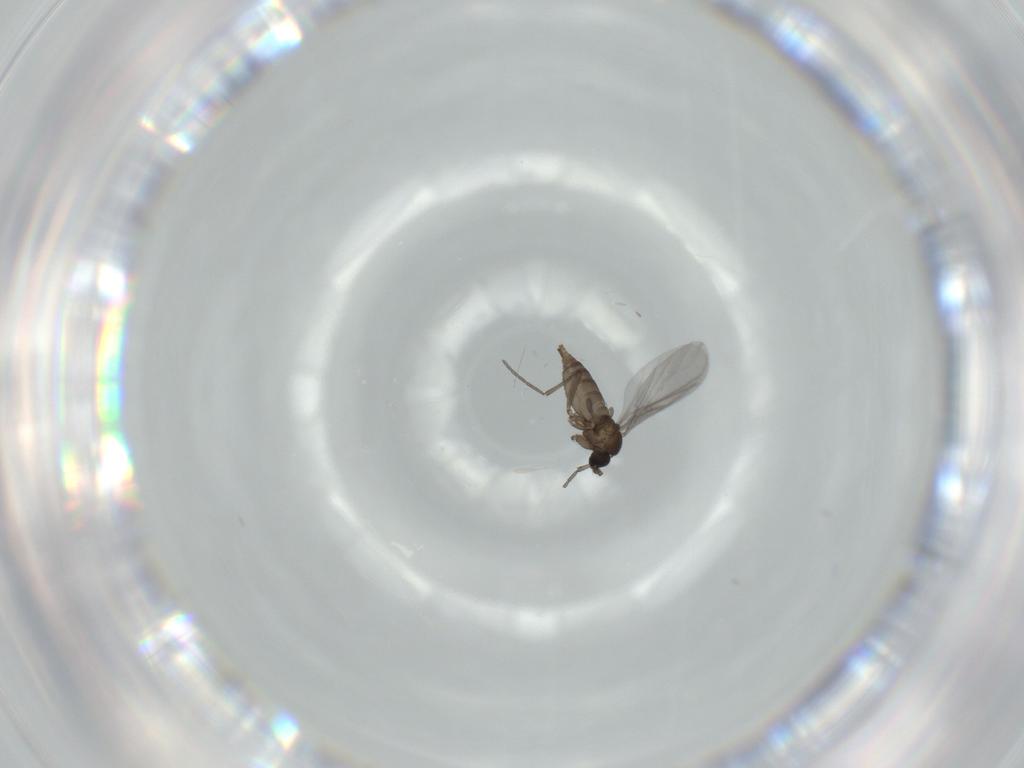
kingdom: Animalia
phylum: Arthropoda
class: Insecta
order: Diptera
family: Sciaridae
